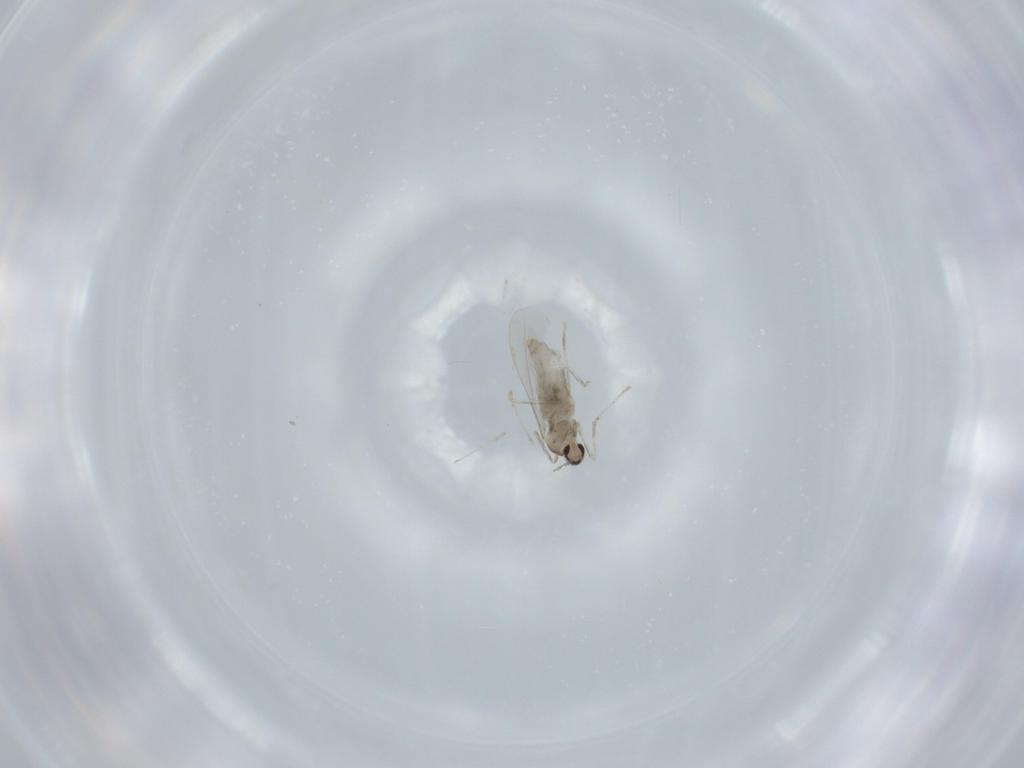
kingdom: Animalia
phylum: Arthropoda
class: Insecta
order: Diptera
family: Cecidomyiidae
